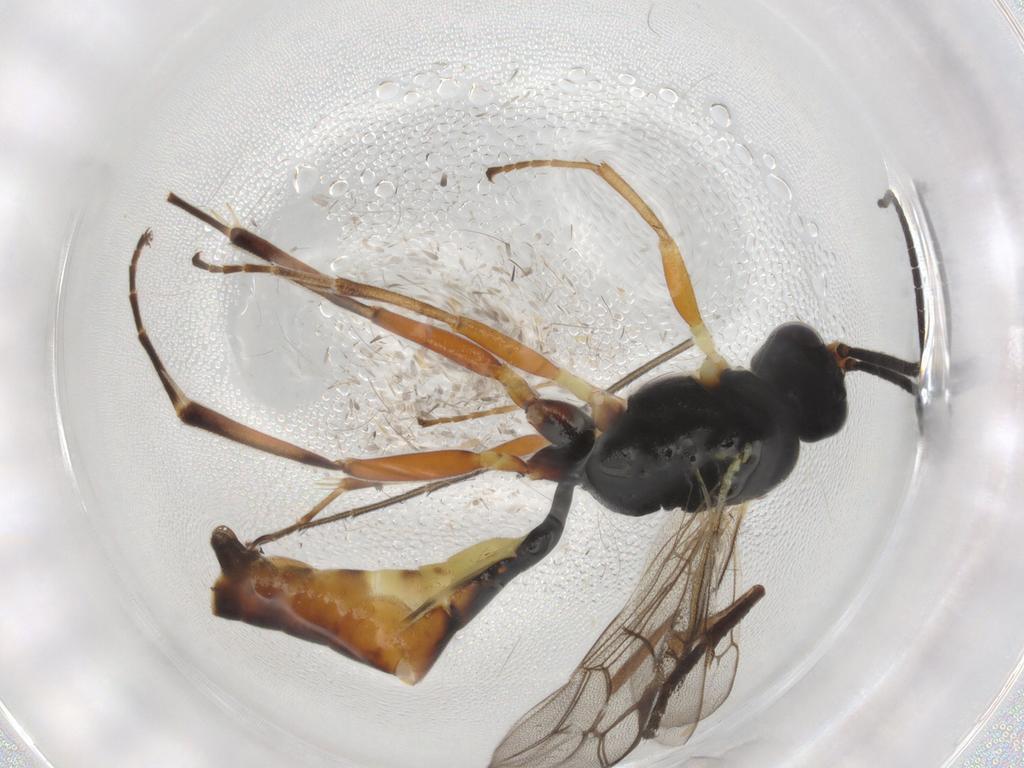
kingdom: Animalia
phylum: Arthropoda
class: Insecta
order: Hymenoptera
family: Ichneumonidae
